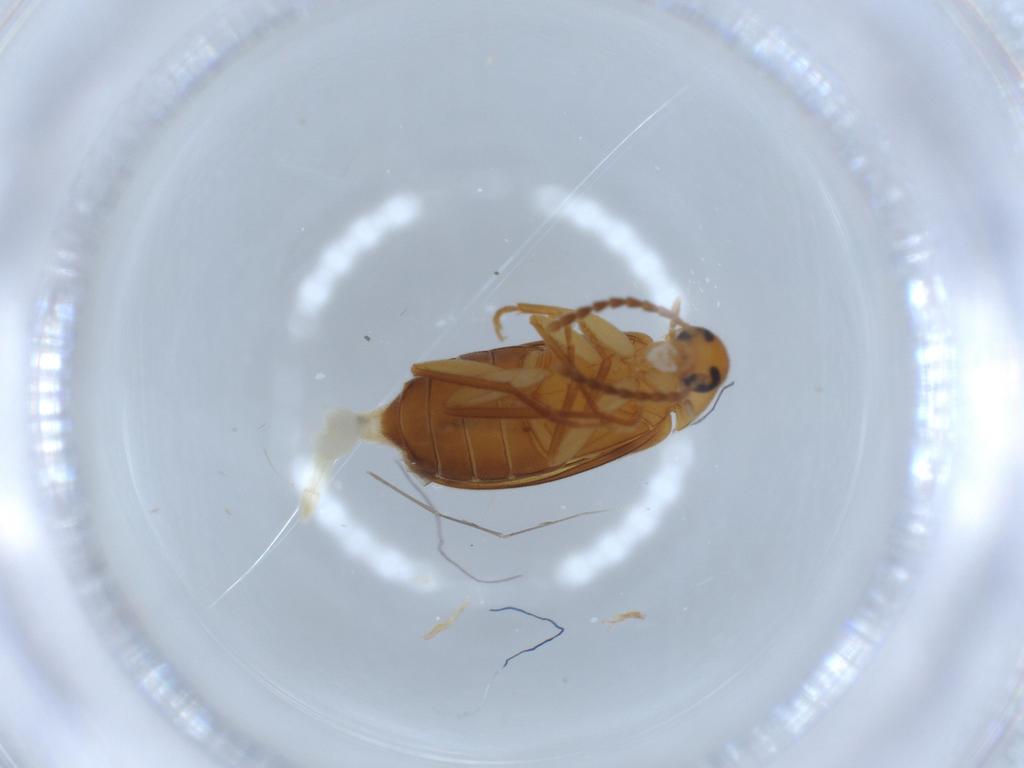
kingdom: Animalia
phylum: Arthropoda
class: Insecta
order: Coleoptera
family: Scraptiidae
